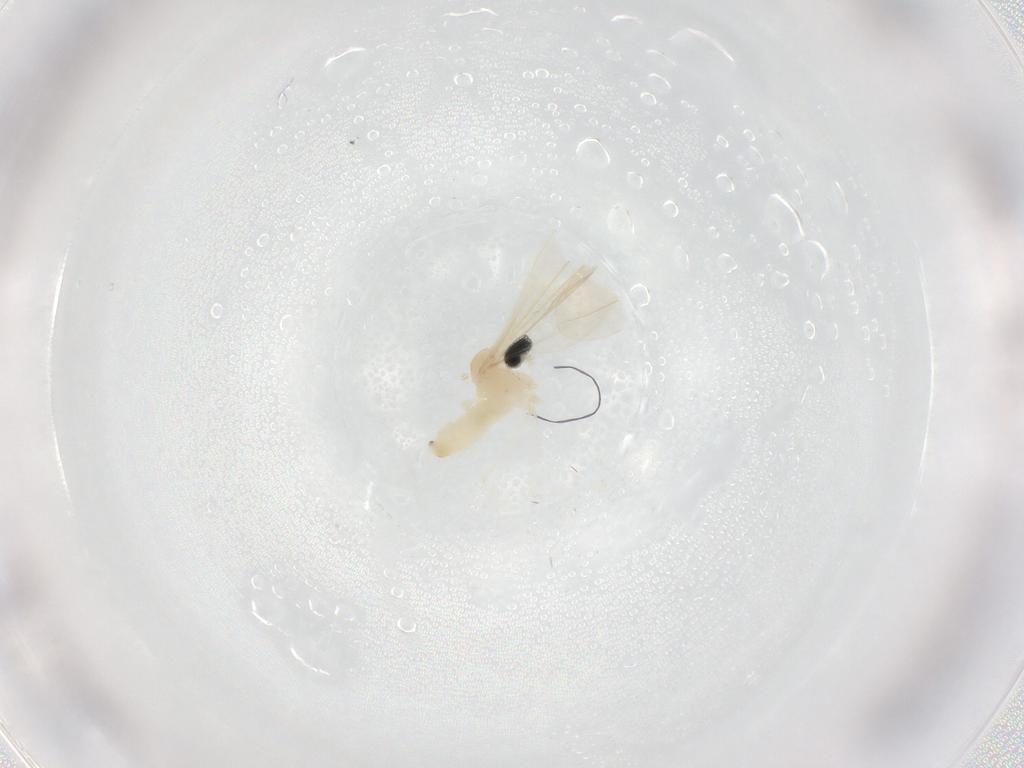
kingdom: Animalia
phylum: Arthropoda
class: Insecta
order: Diptera
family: Cecidomyiidae
